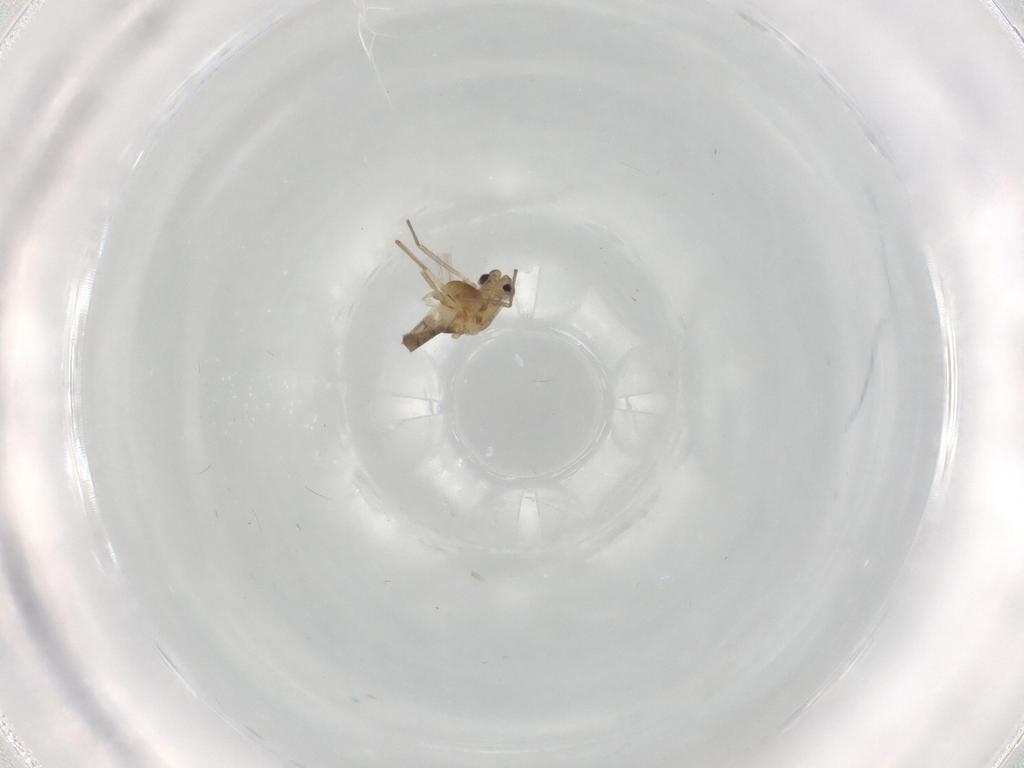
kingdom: Animalia
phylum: Arthropoda
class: Insecta
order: Diptera
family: Chironomidae
